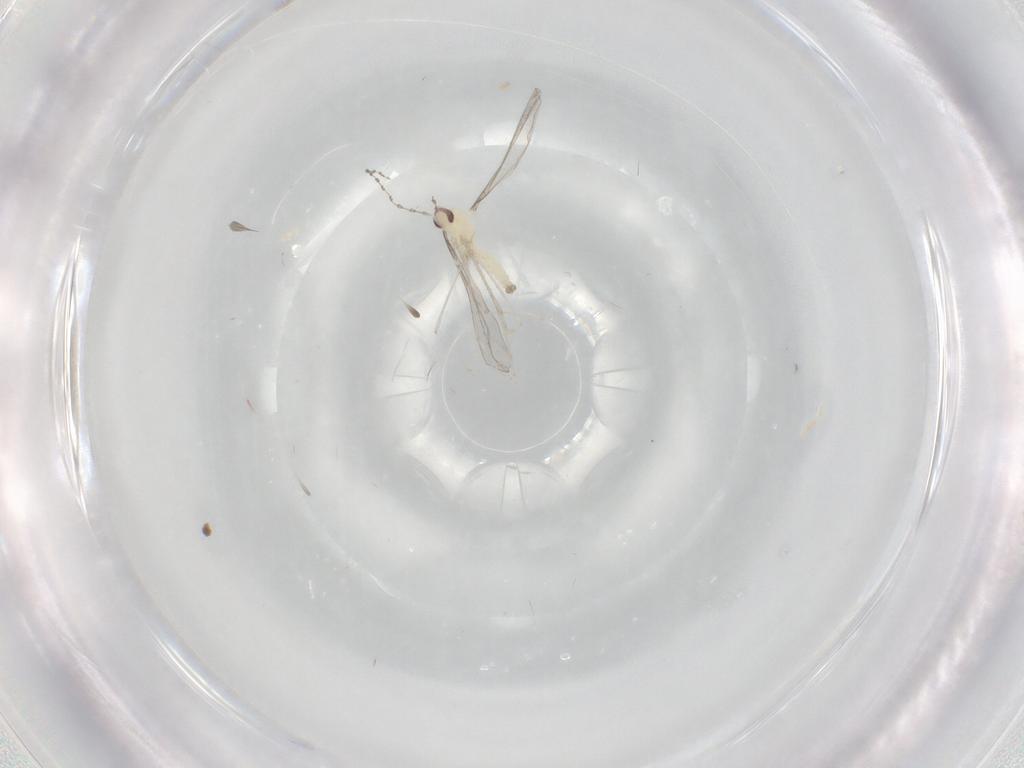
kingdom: Animalia
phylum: Arthropoda
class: Insecta
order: Diptera
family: Cecidomyiidae
